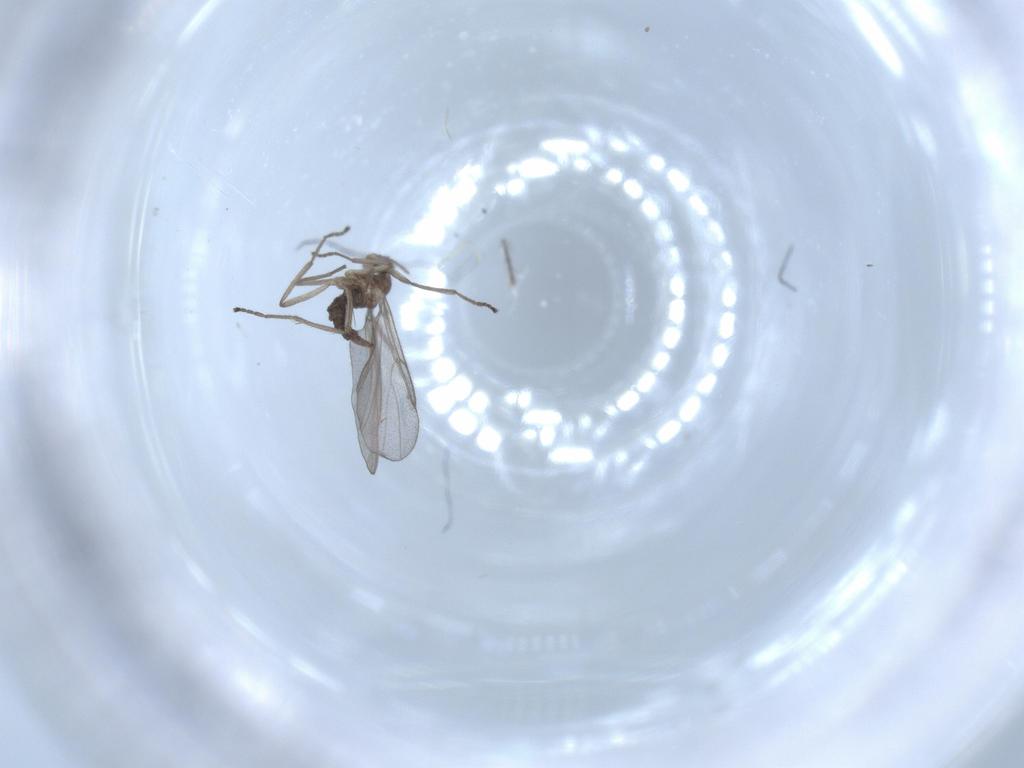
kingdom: Animalia
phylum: Arthropoda
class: Insecta
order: Diptera
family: Cecidomyiidae
